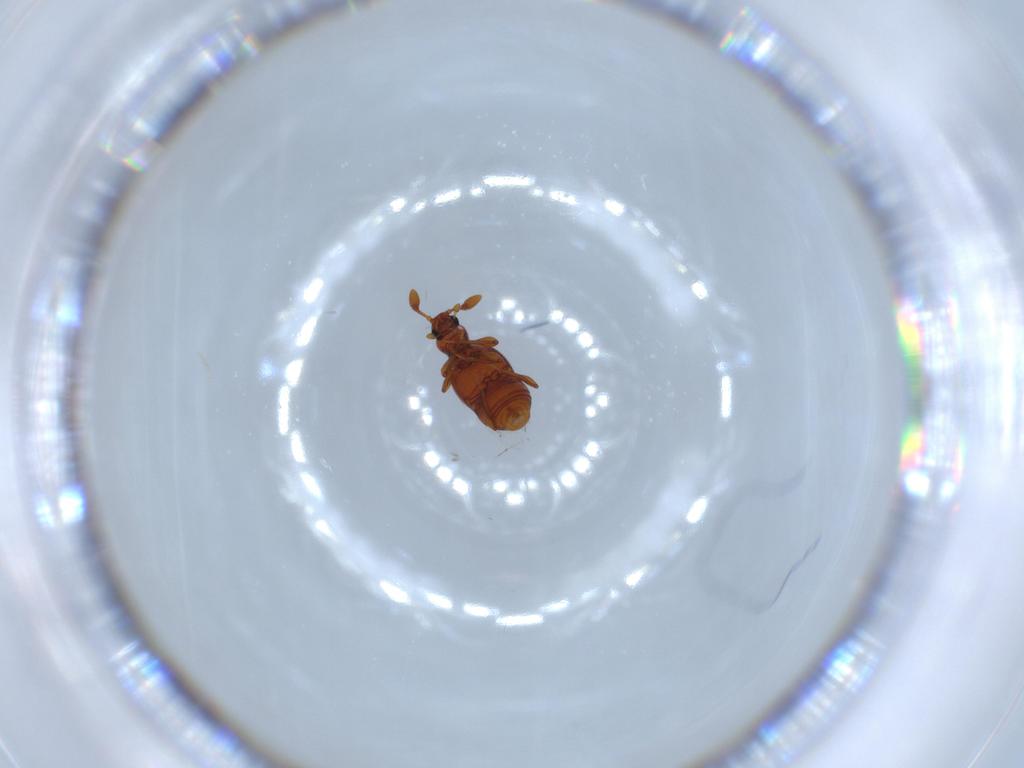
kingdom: Animalia
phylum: Arthropoda
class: Insecta
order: Coleoptera
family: Staphylinidae
